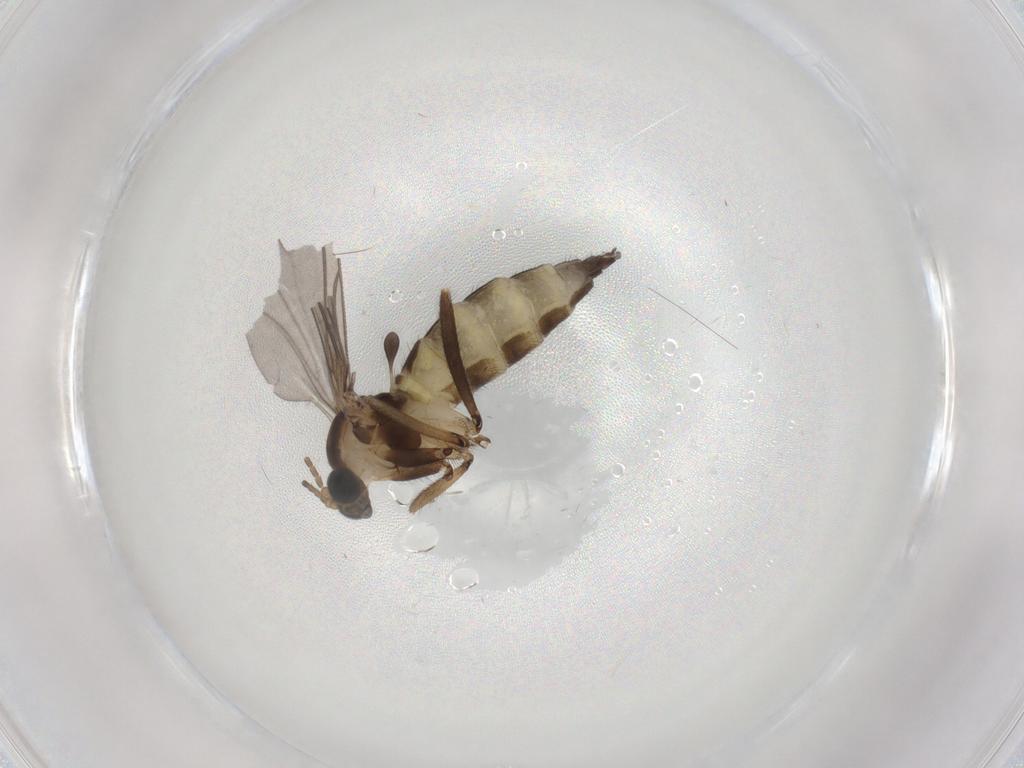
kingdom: Animalia
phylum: Arthropoda
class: Insecta
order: Diptera
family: Sciaridae
